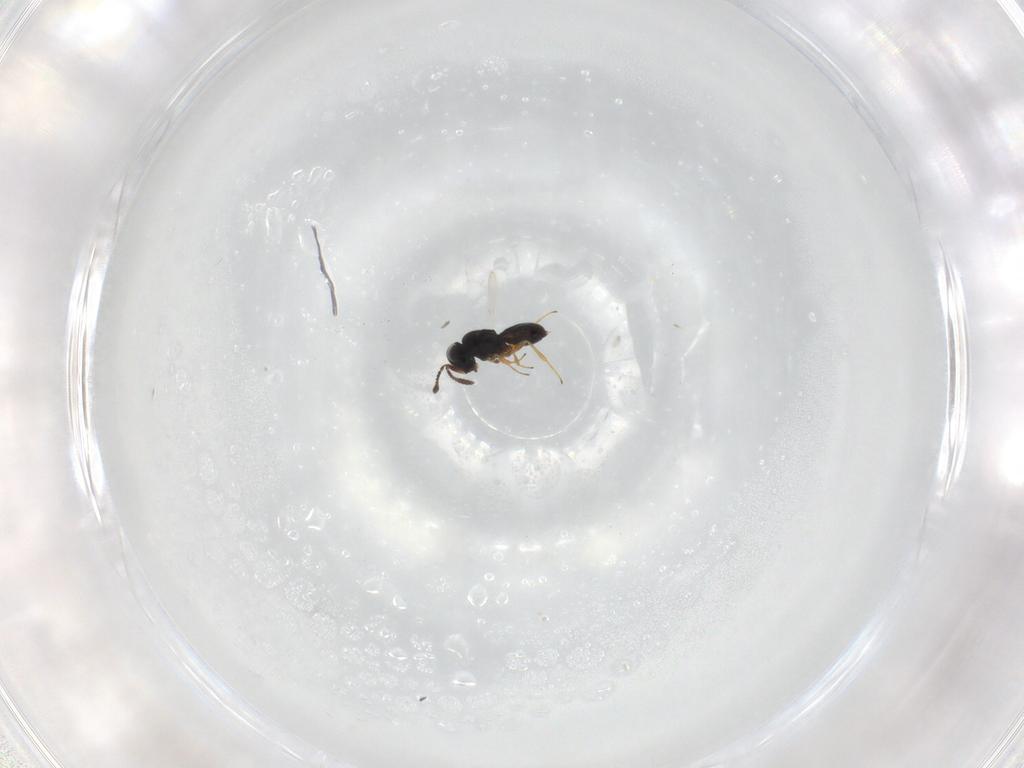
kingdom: Animalia
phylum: Arthropoda
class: Insecta
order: Hymenoptera
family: Scelionidae
